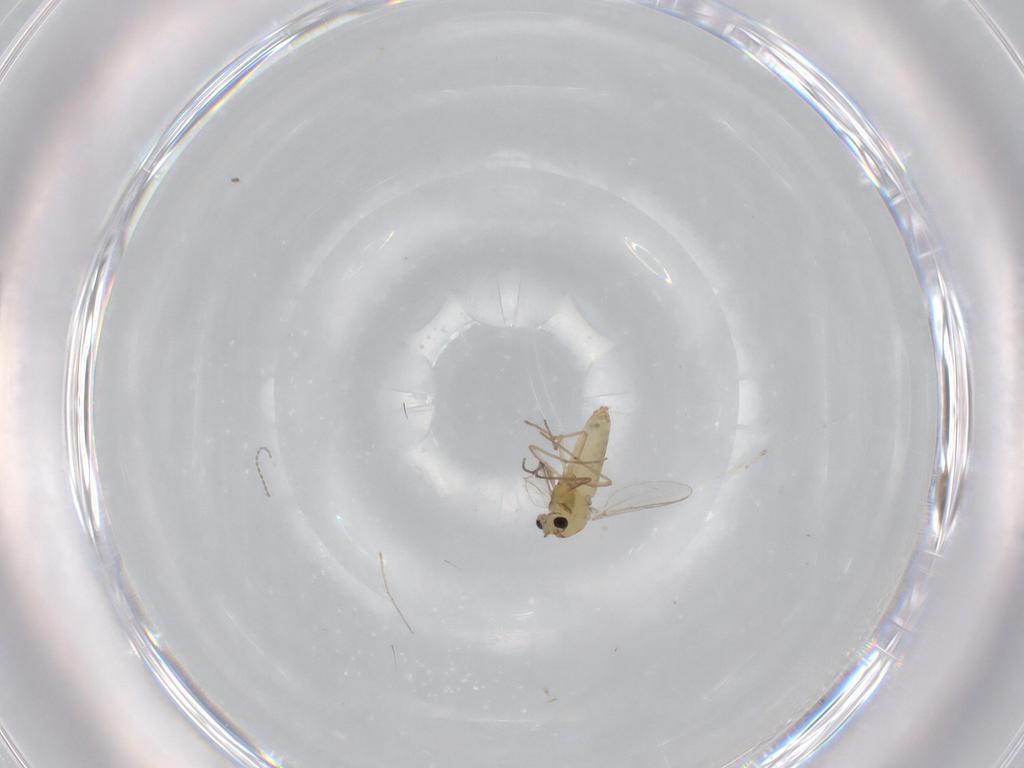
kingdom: Animalia
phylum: Arthropoda
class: Insecta
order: Diptera
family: Chironomidae
